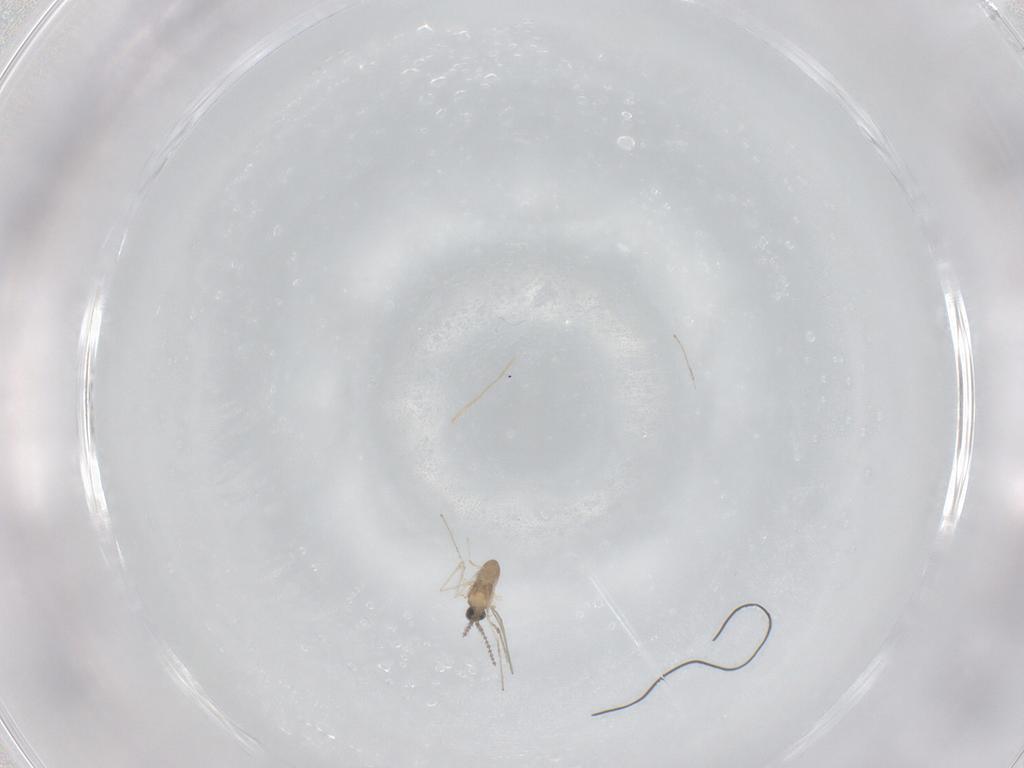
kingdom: Animalia
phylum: Arthropoda
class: Insecta
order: Diptera
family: Cecidomyiidae
